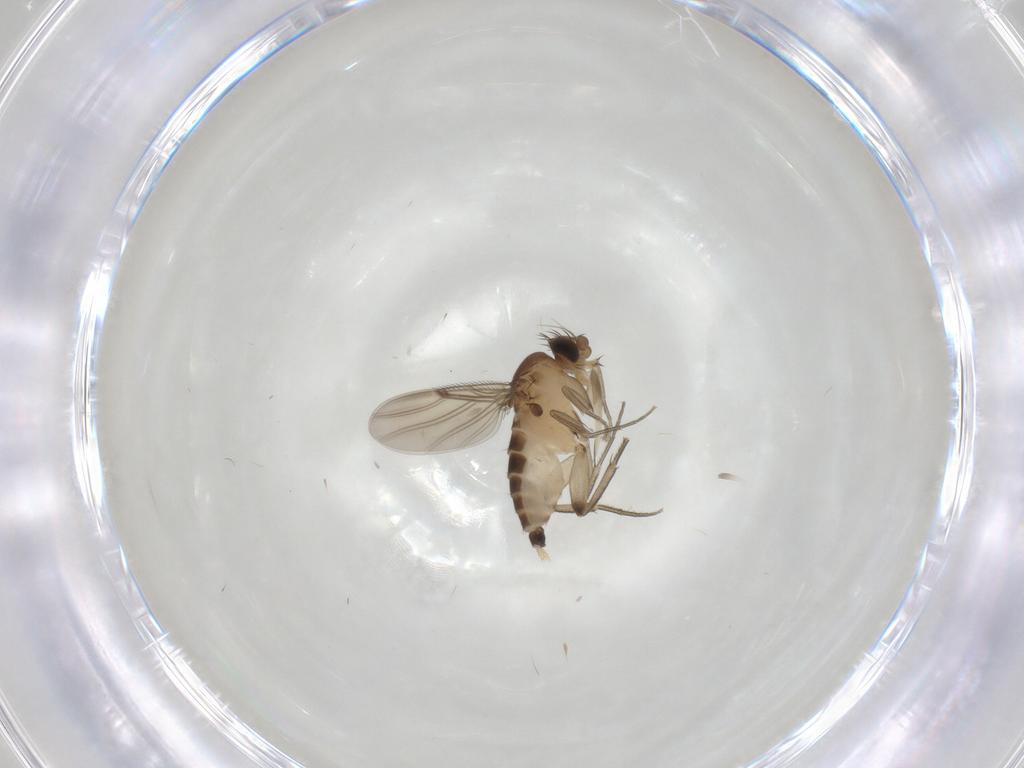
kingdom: Animalia
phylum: Arthropoda
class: Insecta
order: Diptera
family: Phoridae
